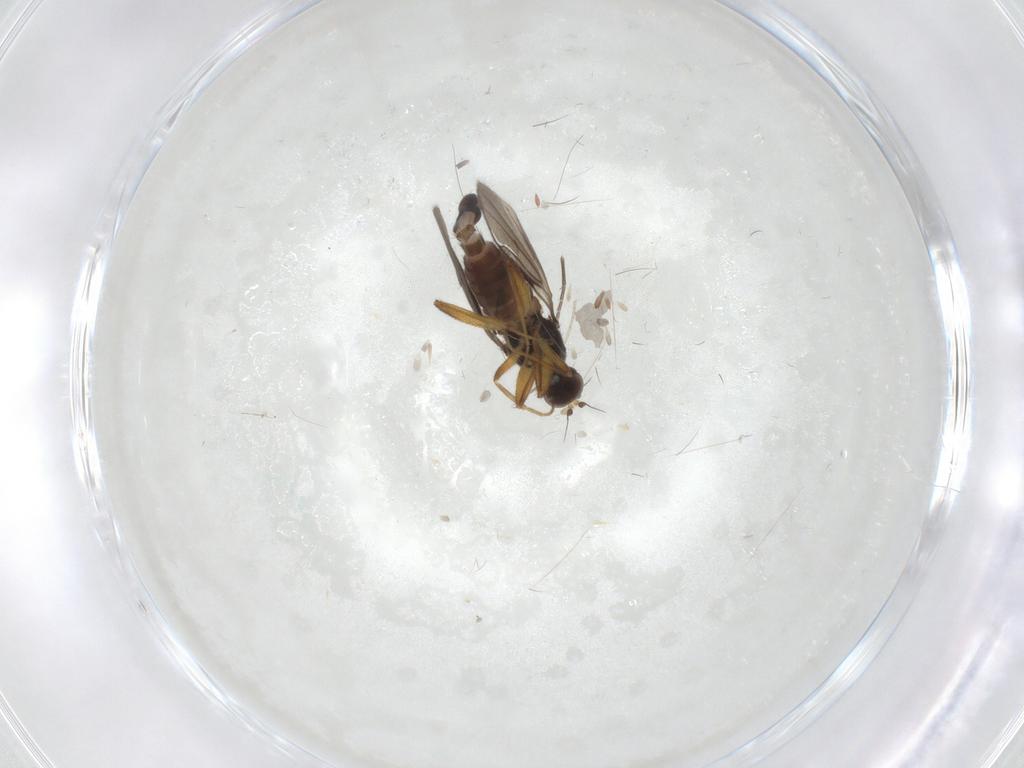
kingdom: Animalia
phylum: Arthropoda
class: Insecta
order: Diptera
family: Hybotidae
